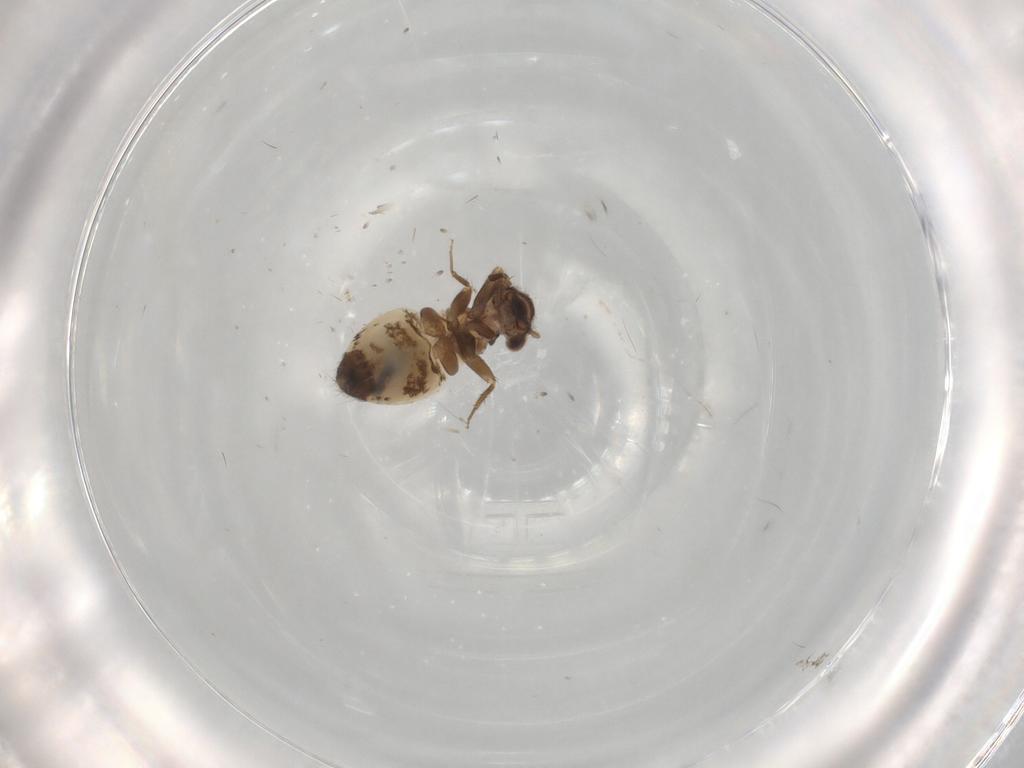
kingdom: Animalia
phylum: Arthropoda
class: Insecta
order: Psocodea
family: Lepidopsocidae
